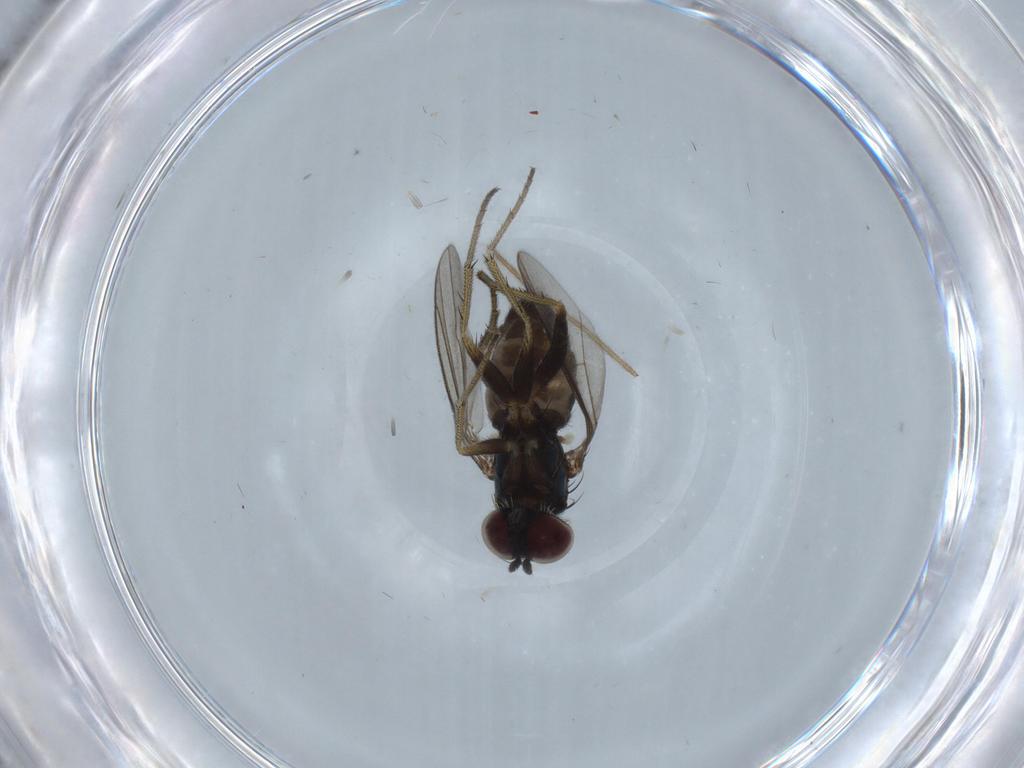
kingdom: Animalia
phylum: Arthropoda
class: Insecta
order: Diptera
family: Dolichopodidae
